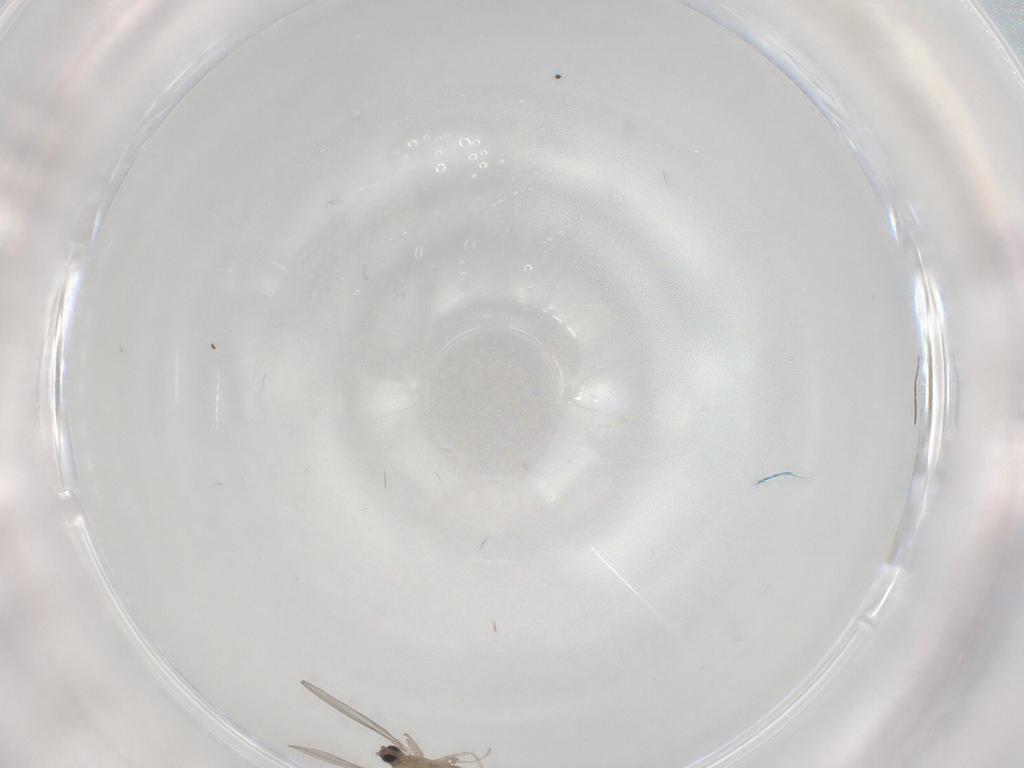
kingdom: Animalia
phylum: Arthropoda
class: Insecta
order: Diptera
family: Cecidomyiidae
